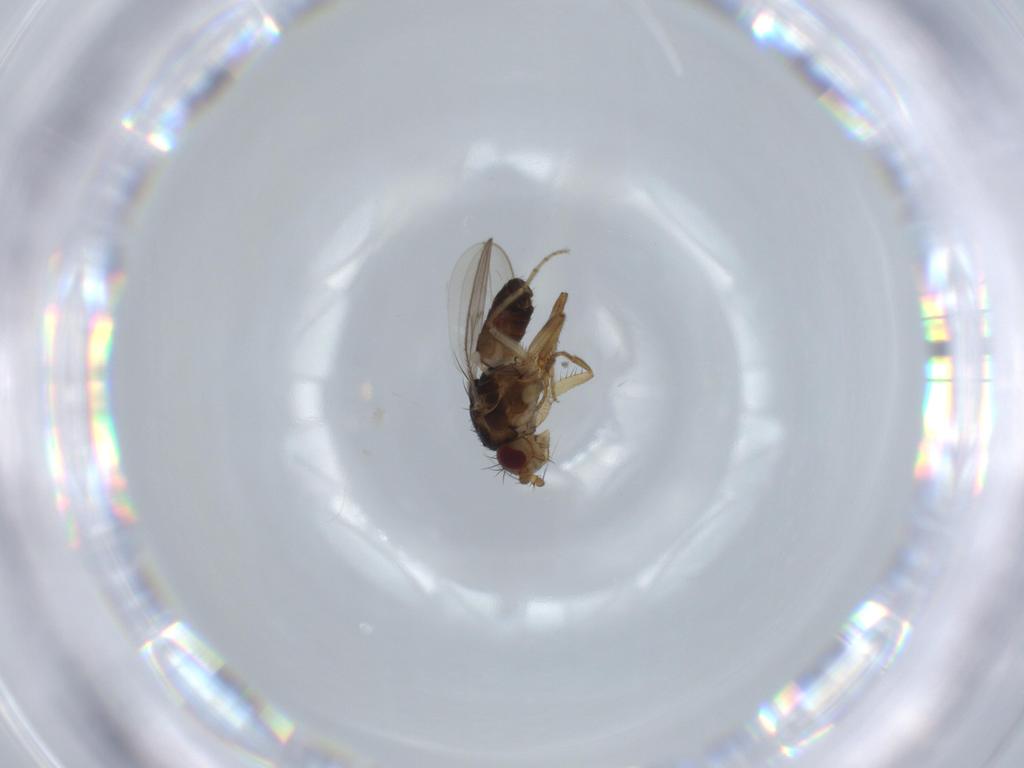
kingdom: Animalia
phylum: Arthropoda
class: Insecta
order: Diptera
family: Sphaeroceridae
